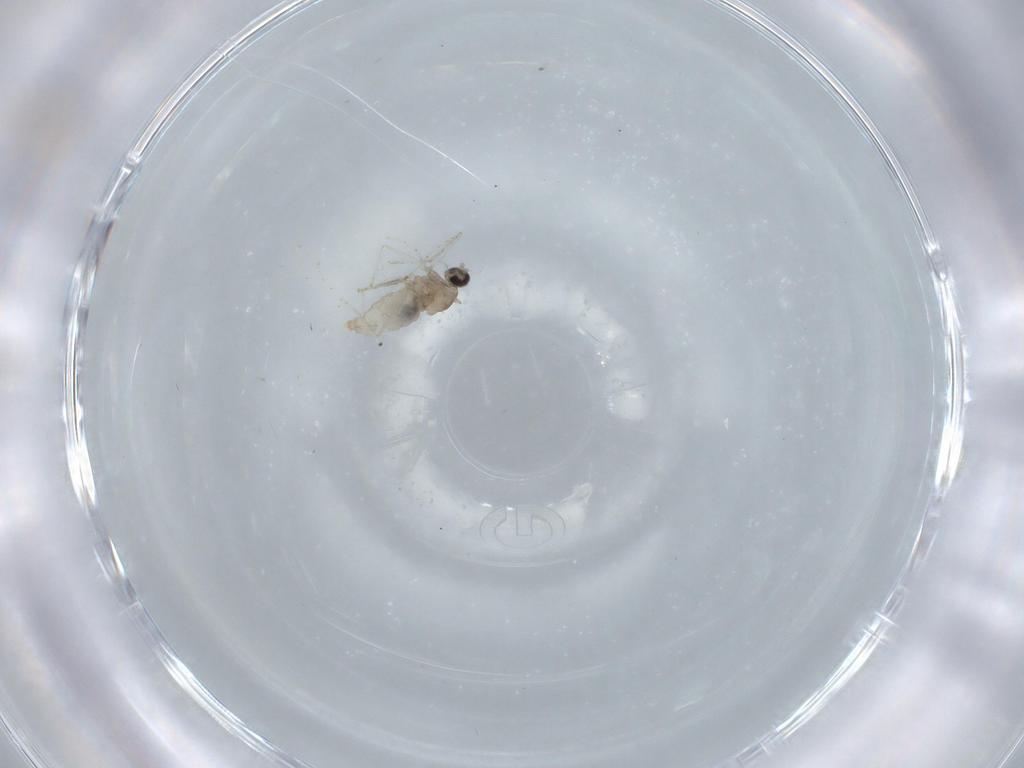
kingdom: Animalia
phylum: Arthropoda
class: Insecta
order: Diptera
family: Cecidomyiidae
